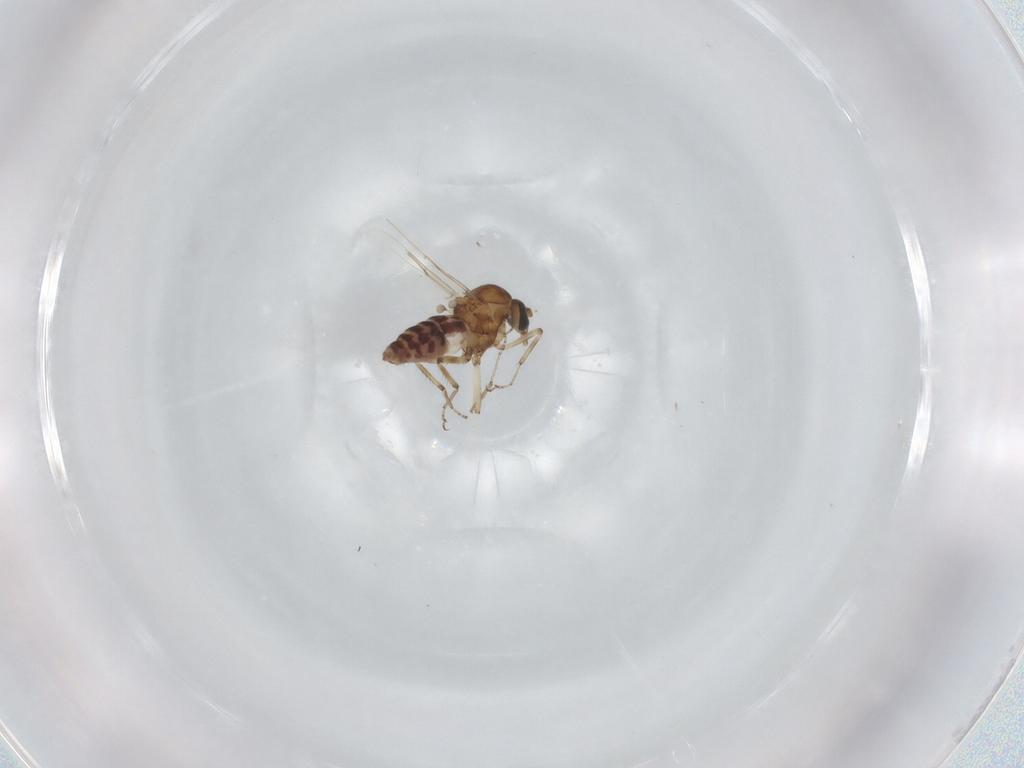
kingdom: Animalia
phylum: Arthropoda
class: Insecta
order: Diptera
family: Ceratopogonidae
